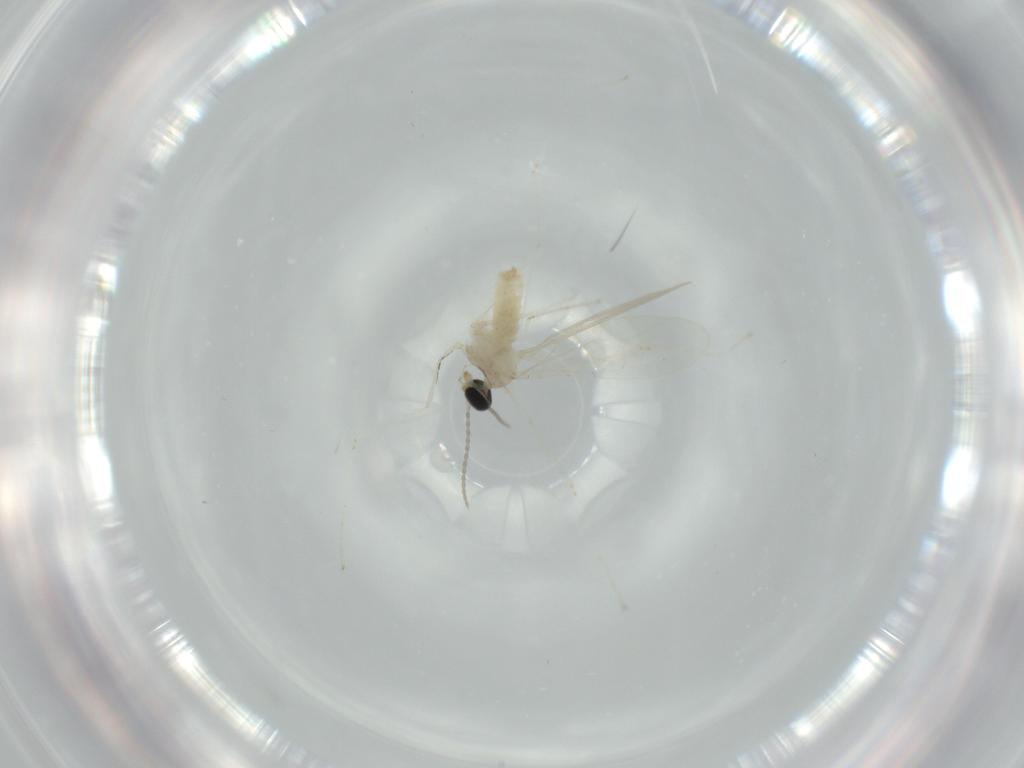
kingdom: Animalia
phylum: Arthropoda
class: Insecta
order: Diptera
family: Cecidomyiidae
